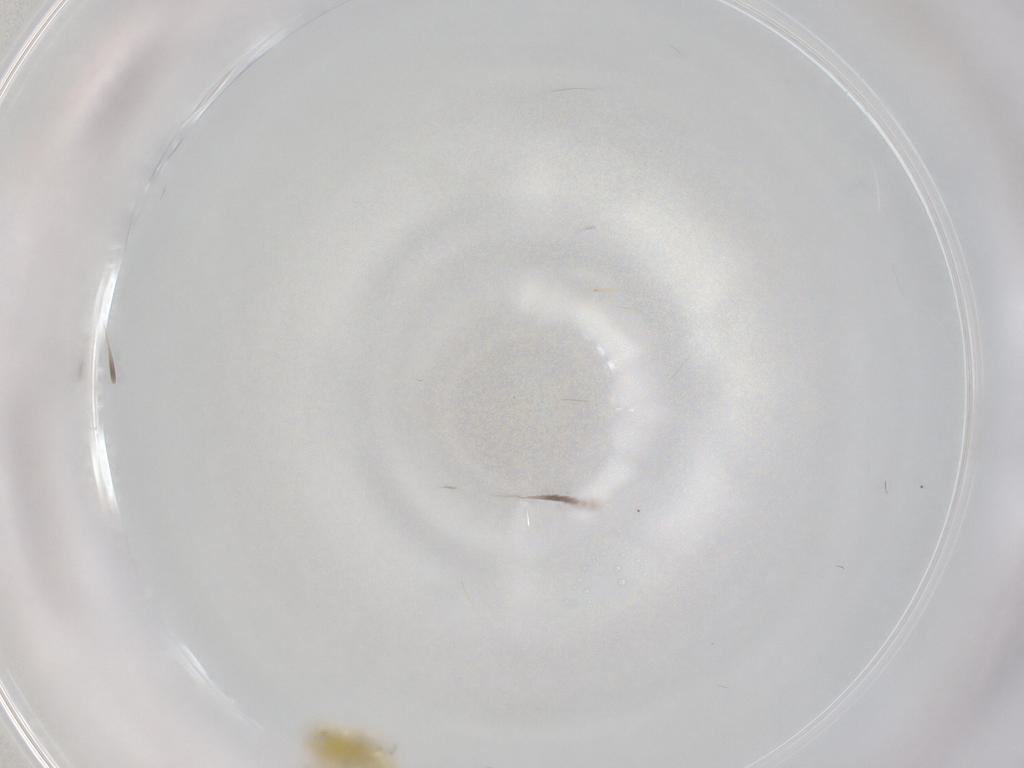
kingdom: Animalia
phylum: Arthropoda
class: Insecta
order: Hemiptera
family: Aleyrodidae
